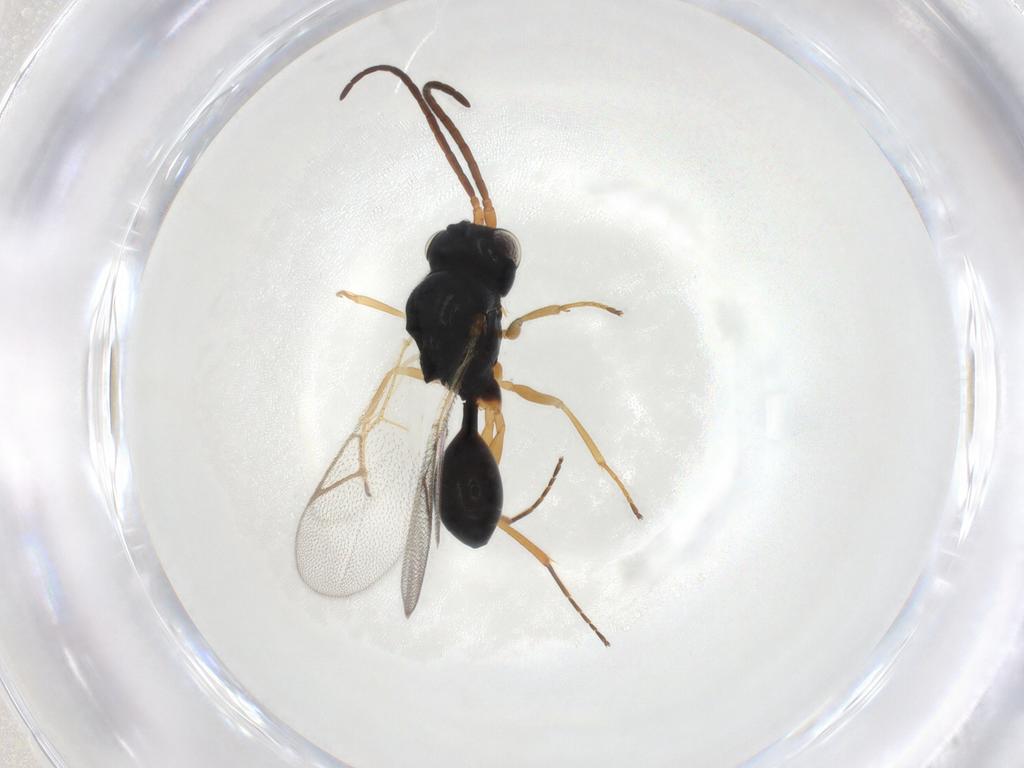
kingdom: Animalia
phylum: Arthropoda
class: Insecta
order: Hymenoptera
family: Figitidae
